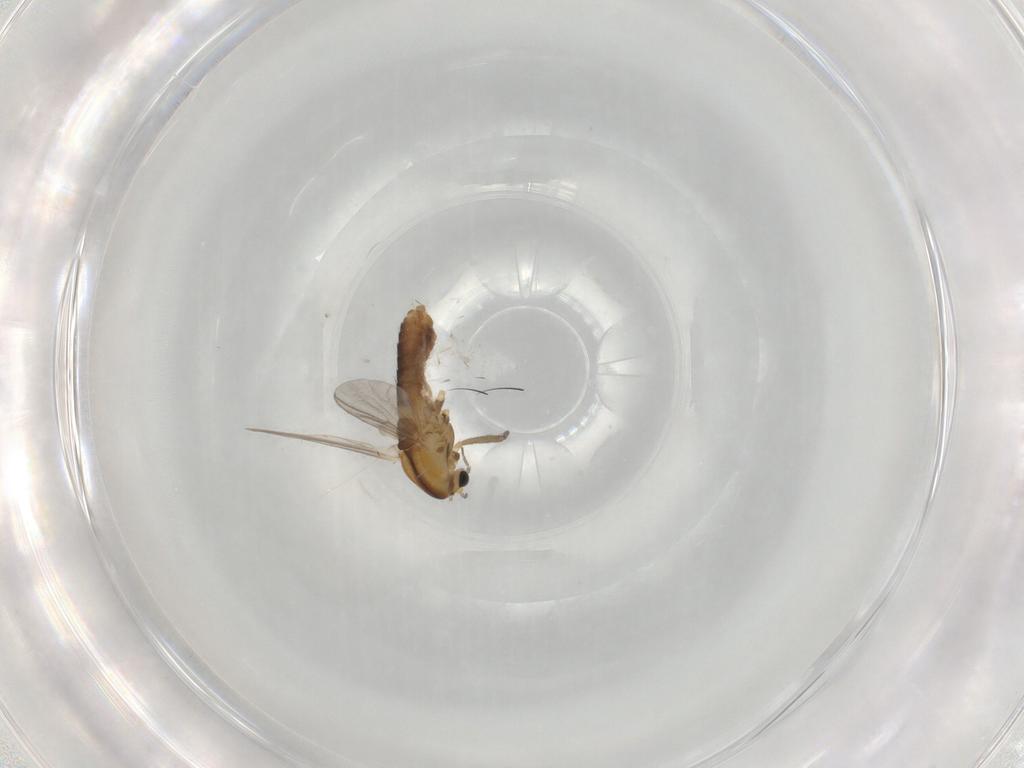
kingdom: Animalia
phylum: Arthropoda
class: Insecta
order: Diptera
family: Chironomidae
